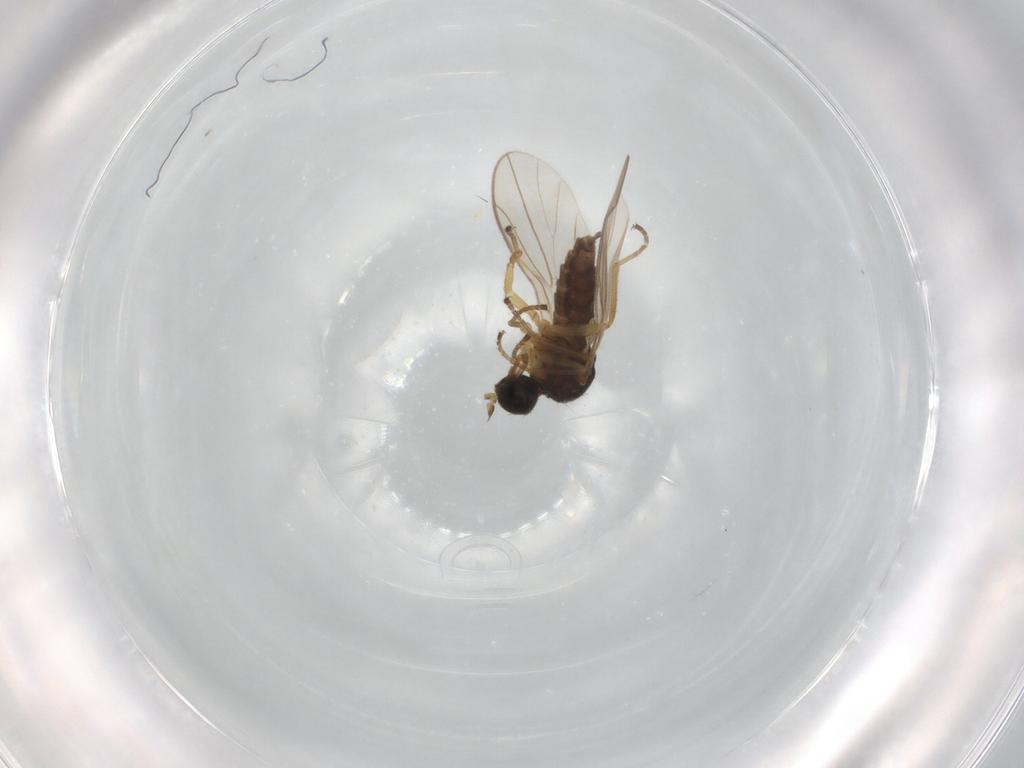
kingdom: Animalia
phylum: Arthropoda
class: Insecta
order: Diptera
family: Hybotidae
